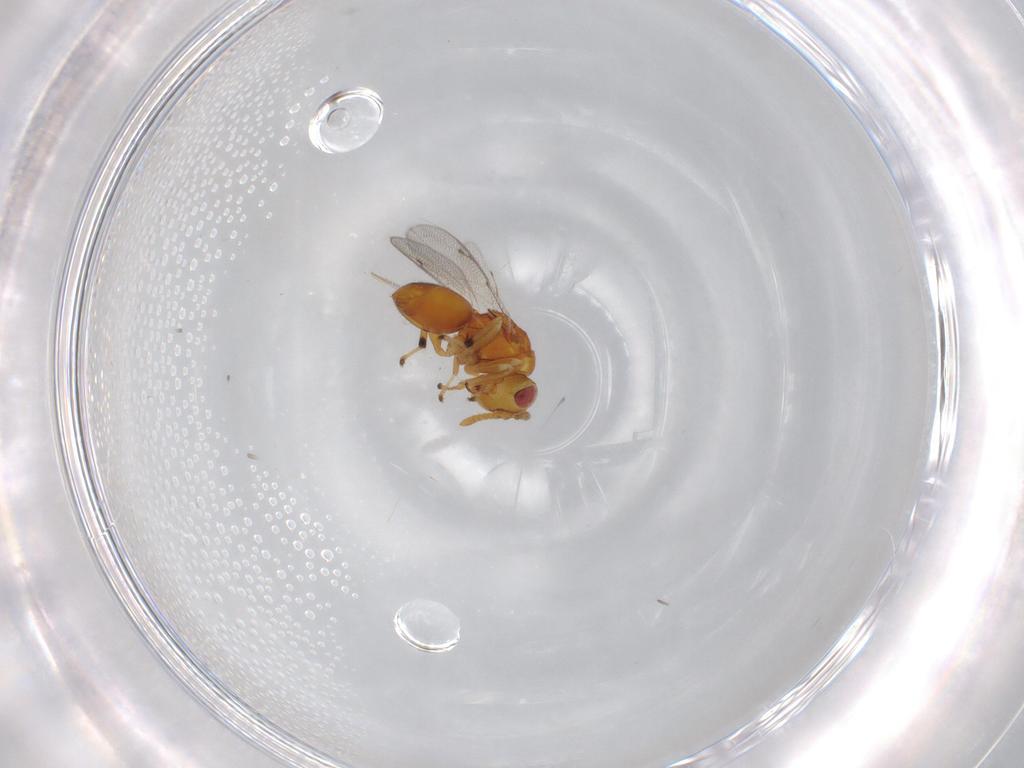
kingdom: Animalia
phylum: Arthropoda
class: Insecta
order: Hymenoptera
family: Eurytomidae
